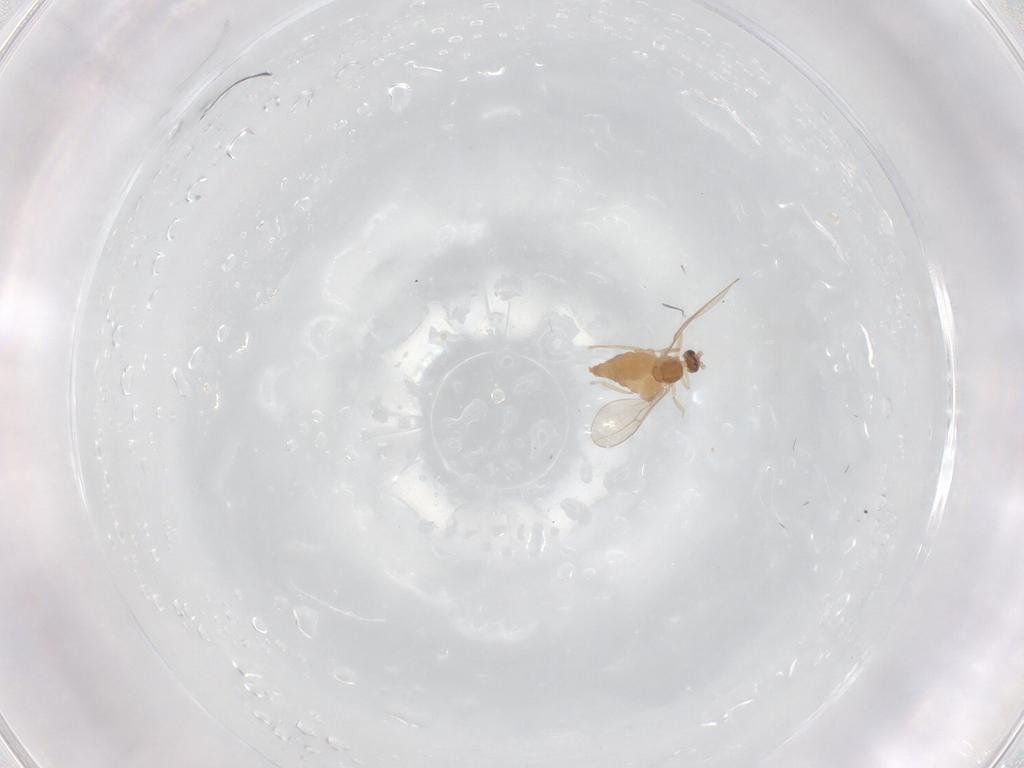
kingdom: Animalia
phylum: Arthropoda
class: Insecta
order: Diptera
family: Cecidomyiidae
